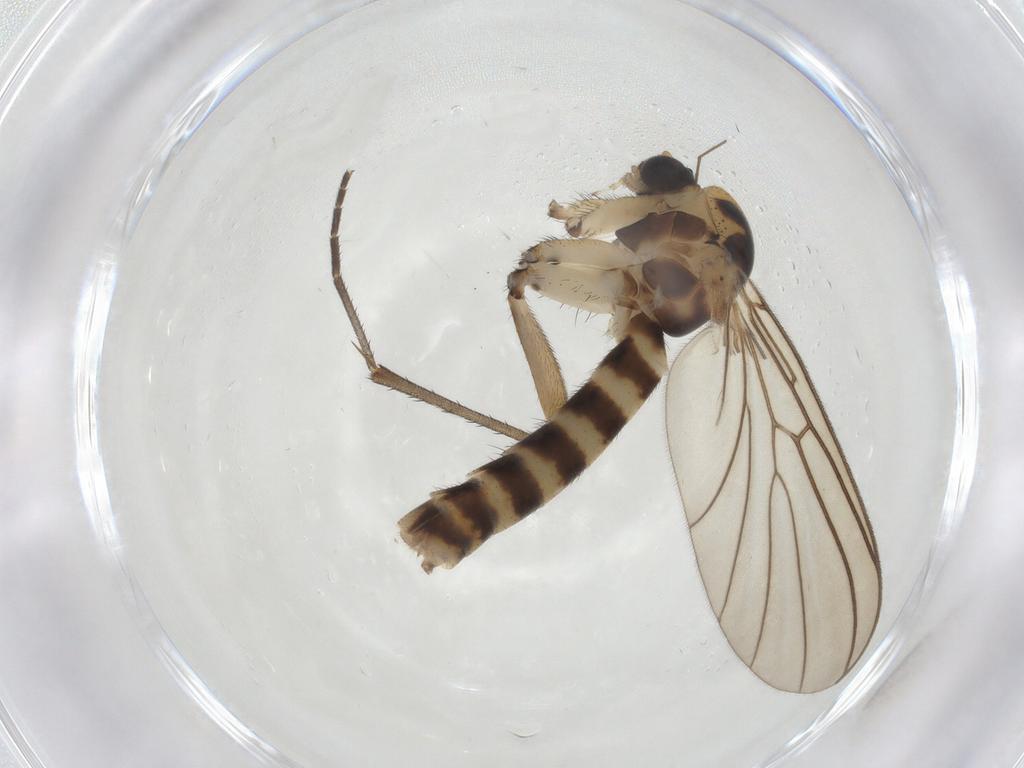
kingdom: Animalia
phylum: Arthropoda
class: Insecta
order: Diptera
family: Mycetophilidae
